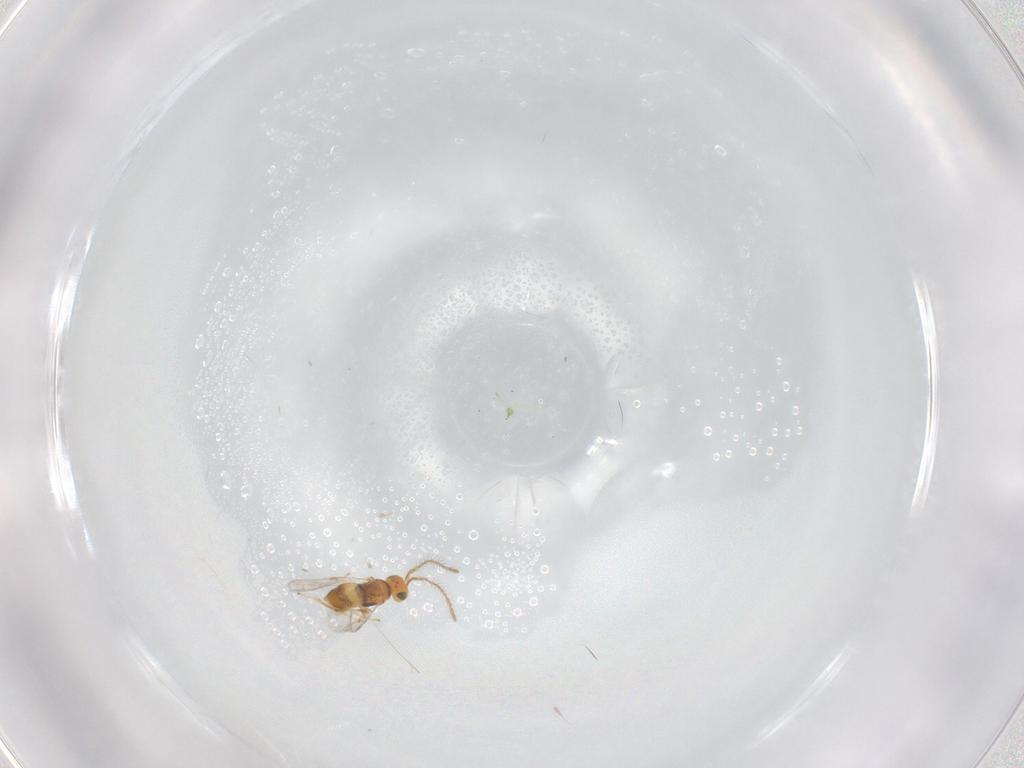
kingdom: Animalia
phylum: Arthropoda
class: Insecta
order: Hymenoptera
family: Encyrtidae
